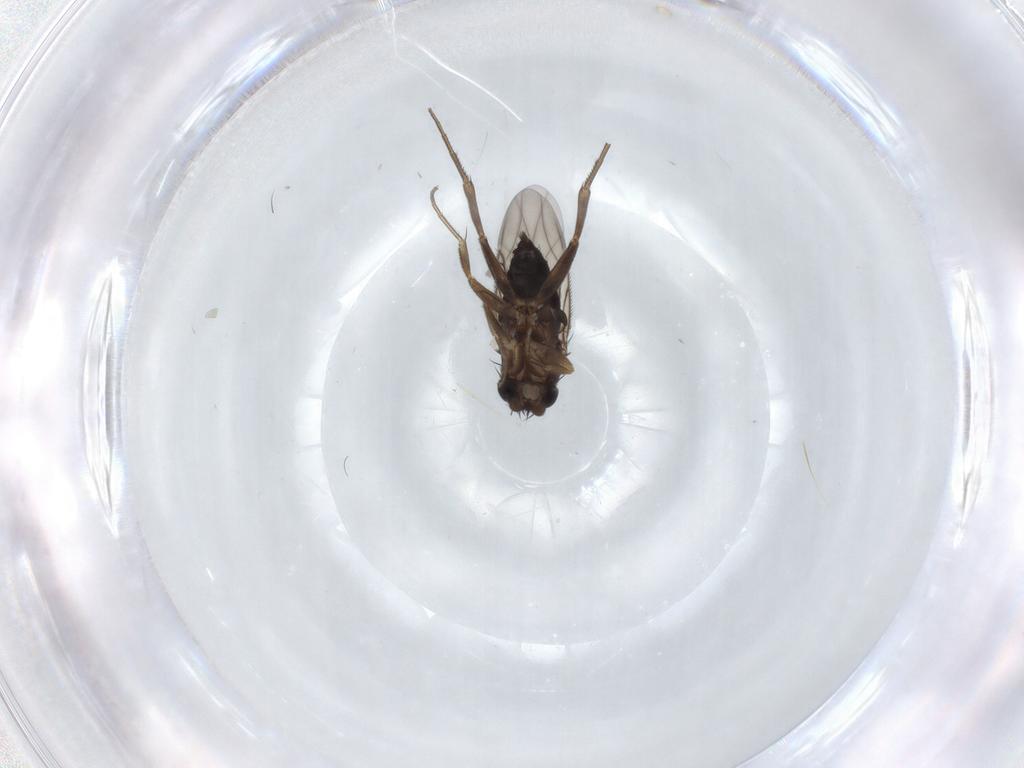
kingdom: Animalia
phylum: Arthropoda
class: Insecta
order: Diptera
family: Phoridae
